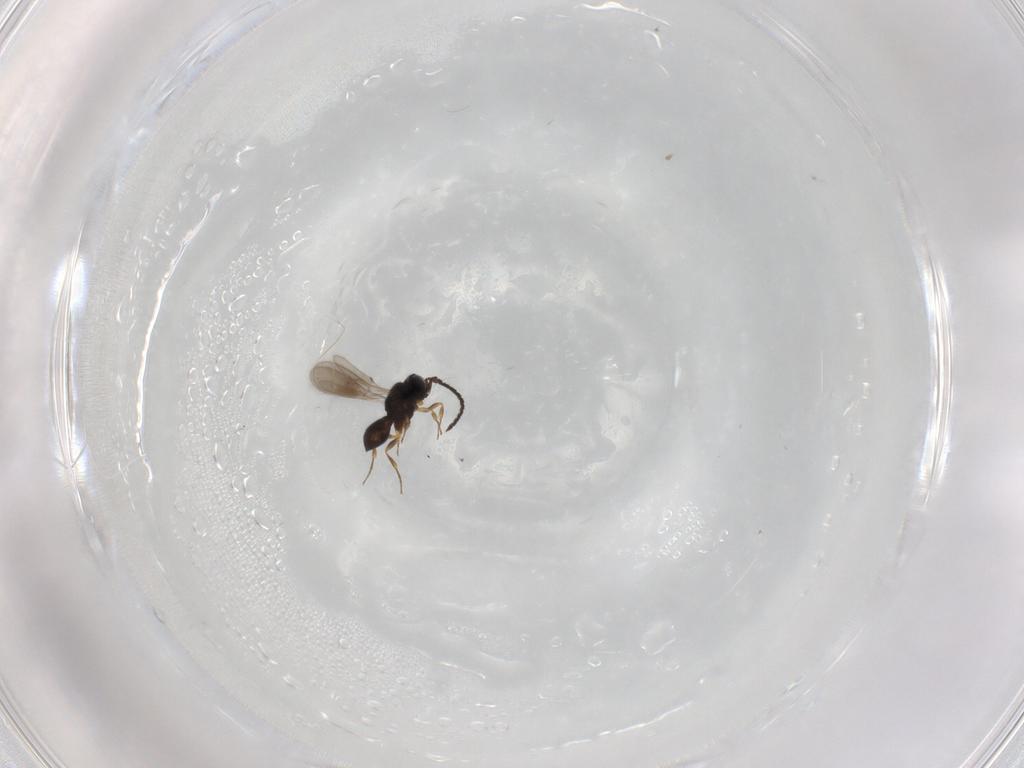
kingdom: Animalia
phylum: Arthropoda
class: Insecta
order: Hymenoptera
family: Scelionidae
